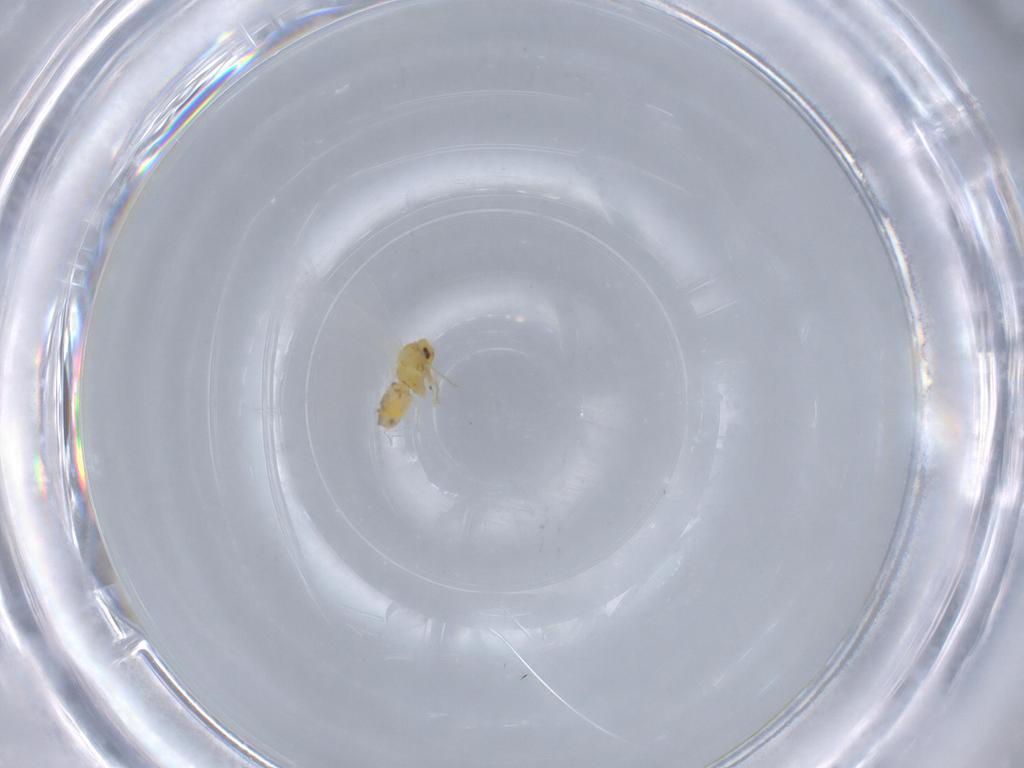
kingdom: Animalia
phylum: Arthropoda
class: Insecta
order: Hemiptera
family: Aleyrodidae
